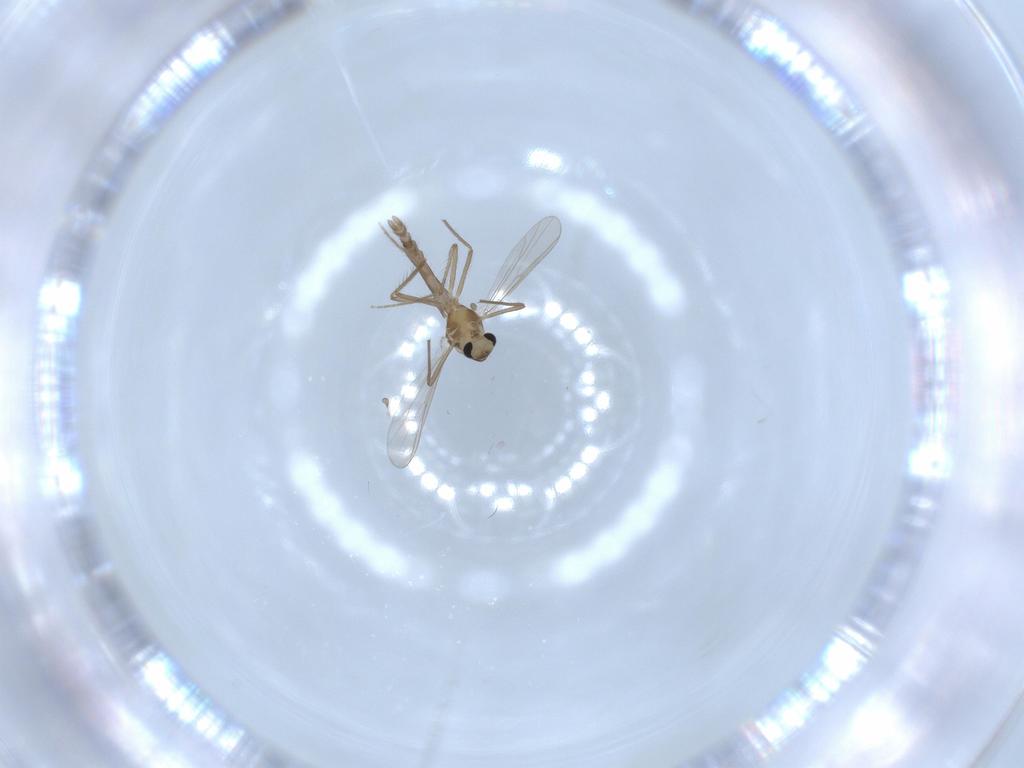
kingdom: Animalia
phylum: Arthropoda
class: Insecta
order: Diptera
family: Chironomidae
